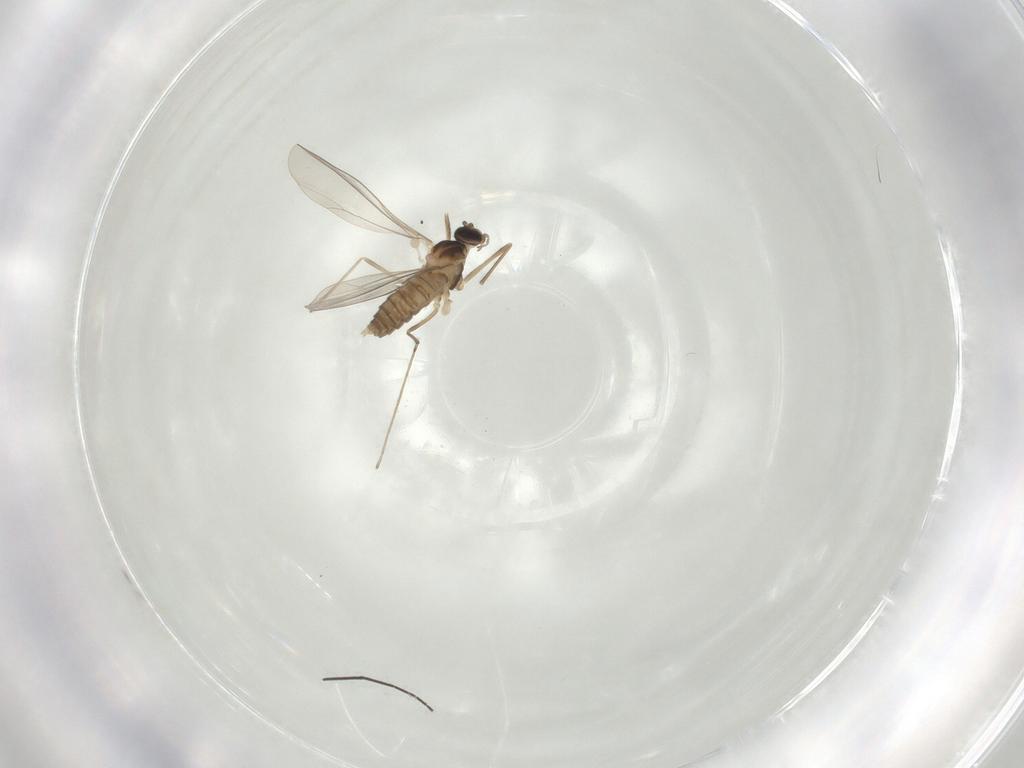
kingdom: Animalia
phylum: Arthropoda
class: Insecta
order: Diptera
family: Chironomidae
